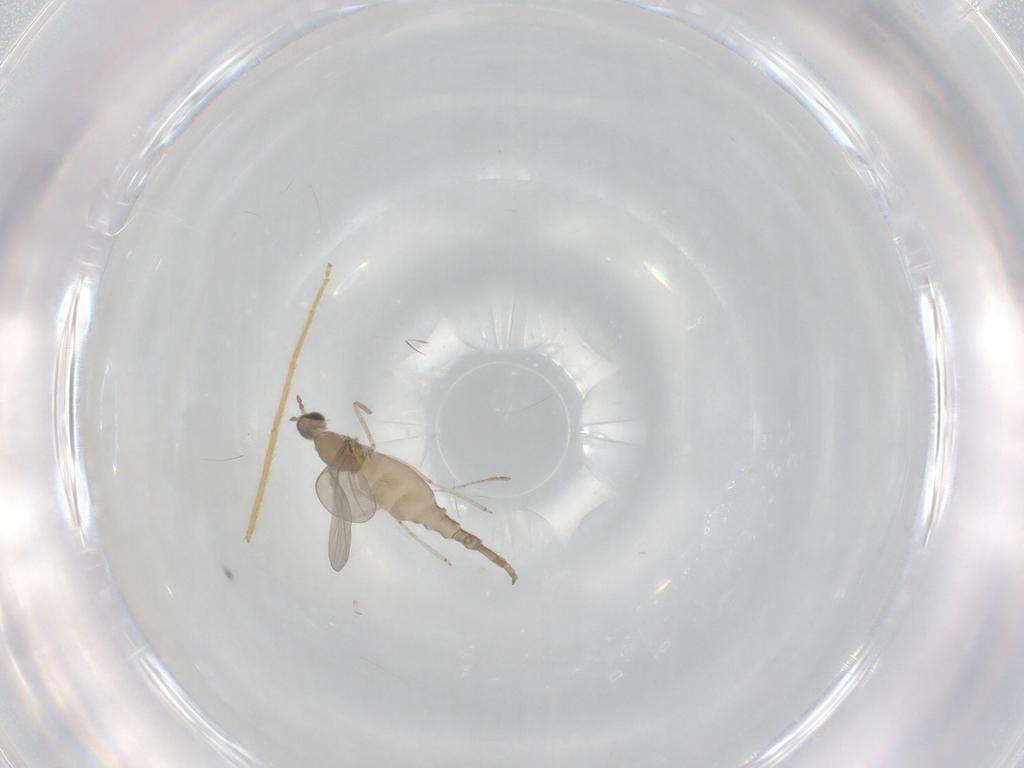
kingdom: Animalia
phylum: Arthropoda
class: Insecta
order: Diptera
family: Cecidomyiidae
